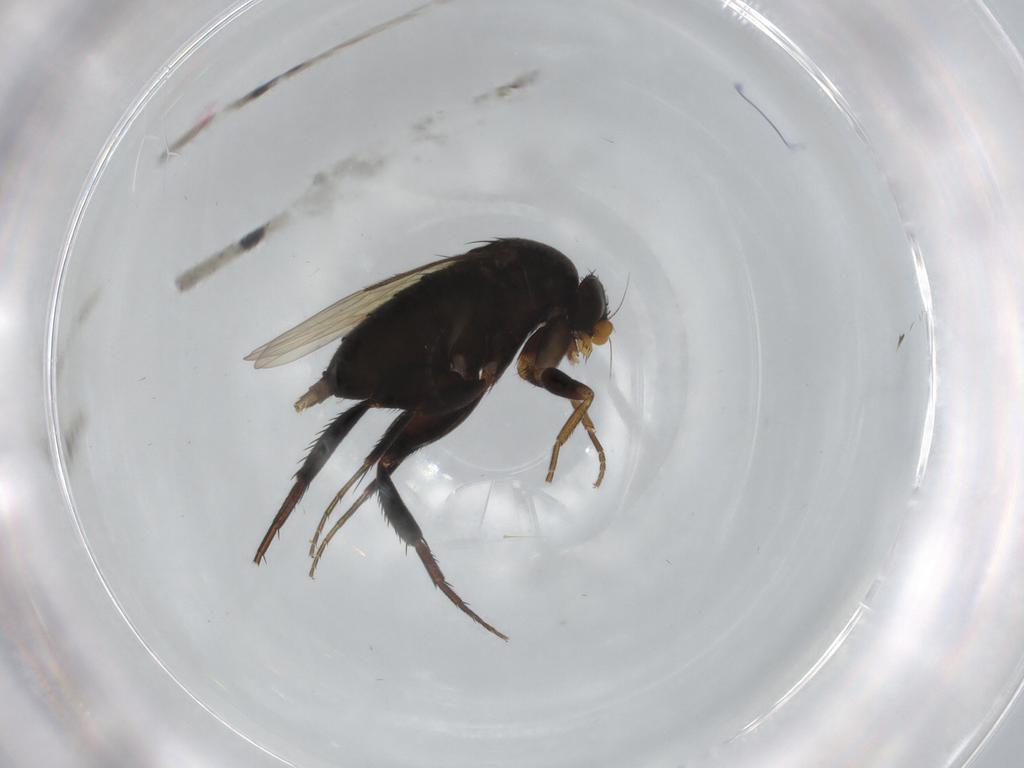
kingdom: Animalia
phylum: Arthropoda
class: Insecta
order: Diptera
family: Phoridae
